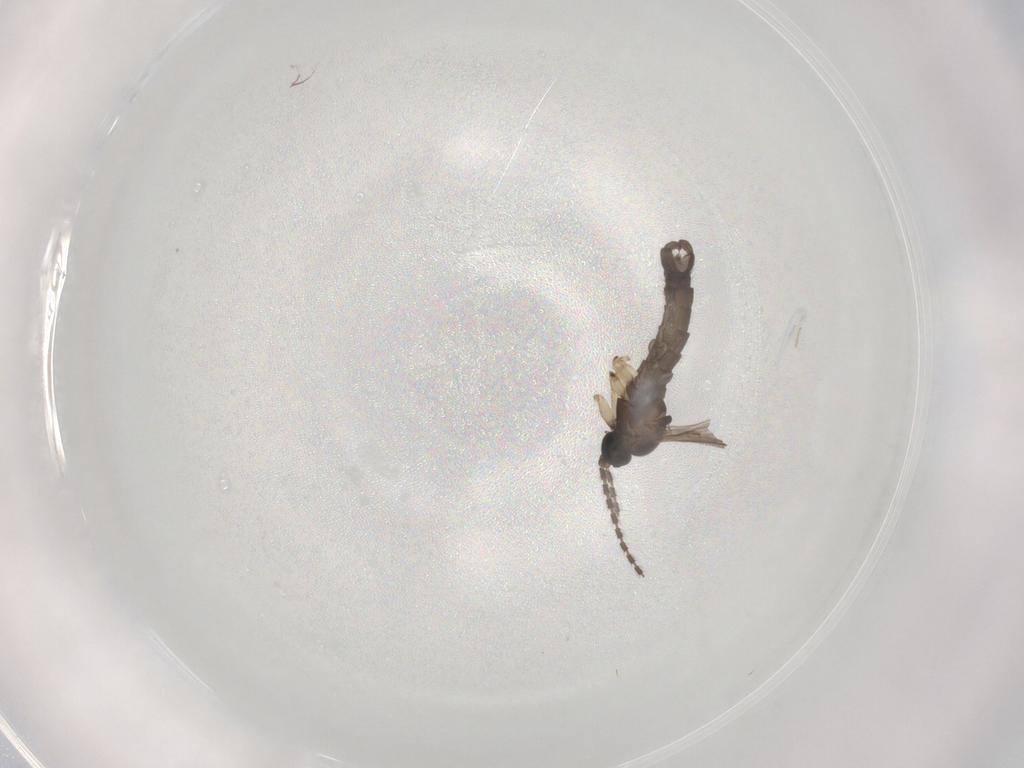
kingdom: Animalia
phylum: Arthropoda
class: Insecta
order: Diptera
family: Sciaridae
